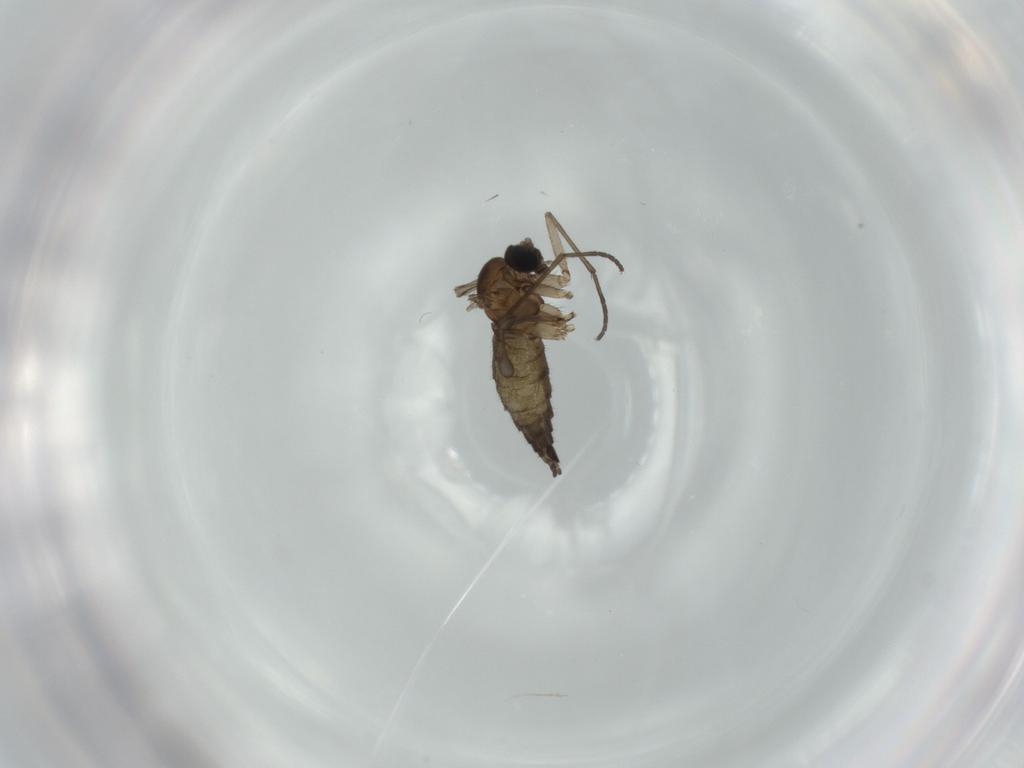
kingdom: Animalia
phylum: Arthropoda
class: Insecta
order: Diptera
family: Sciaridae
